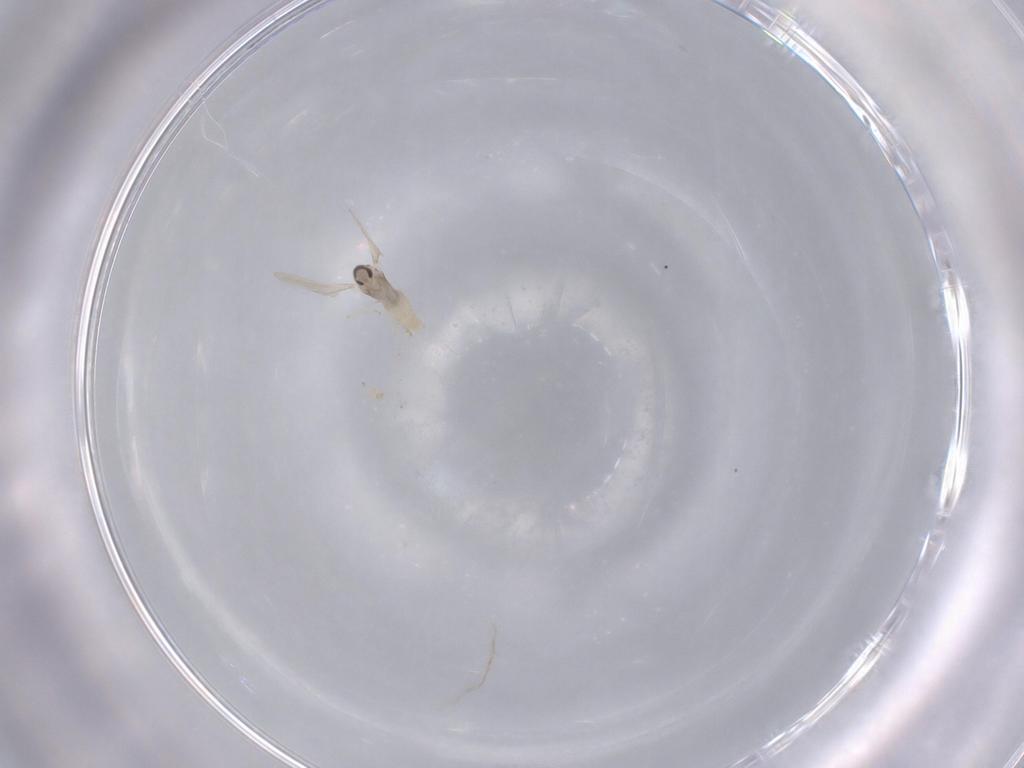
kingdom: Animalia
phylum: Arthropoda
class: Insecta
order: Diptera
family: Cecidomyiidae
